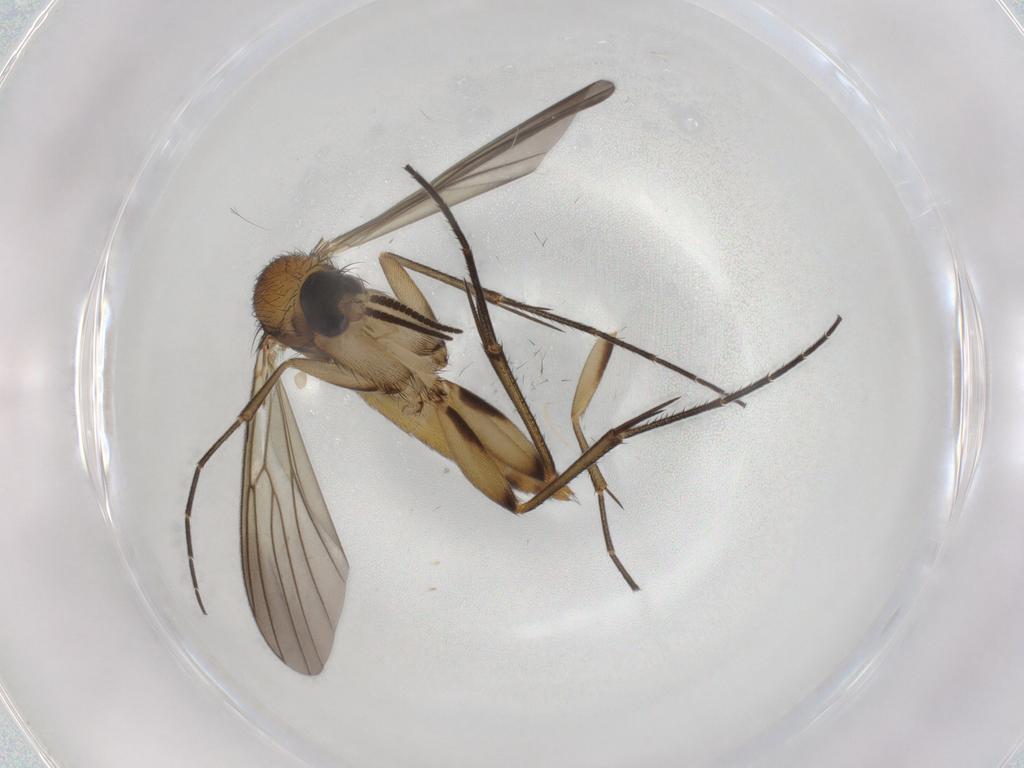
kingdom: Animalia
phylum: Arthropoda
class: Insecta
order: Diptera
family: Mycetophilidae
